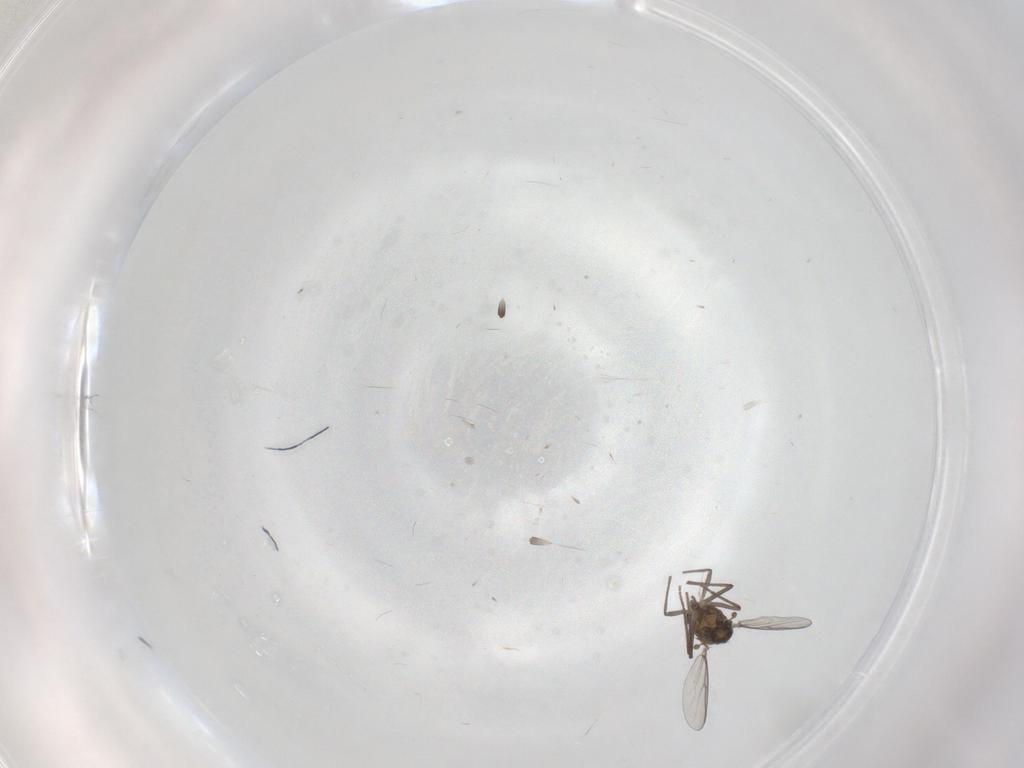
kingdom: Animalia
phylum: Arthropoda
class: Insecta
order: Diptera
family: Chironomidae
